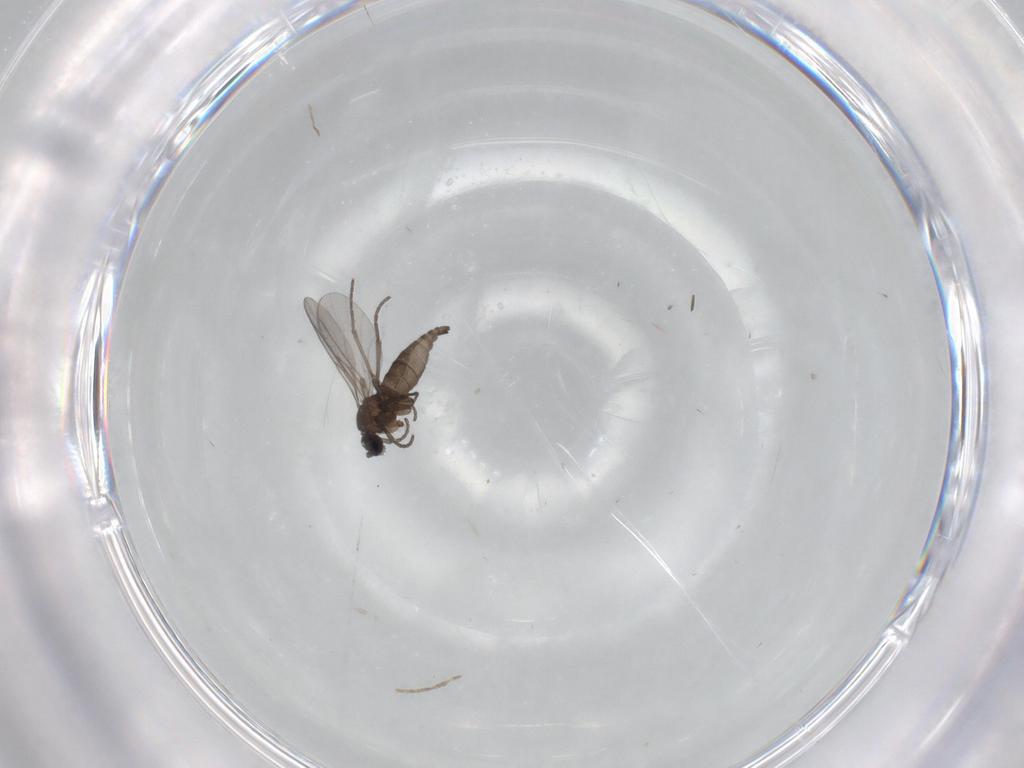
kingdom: Animalia
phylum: Arthropoda
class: Insecta
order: Diptera
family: Cecidomyiidae
